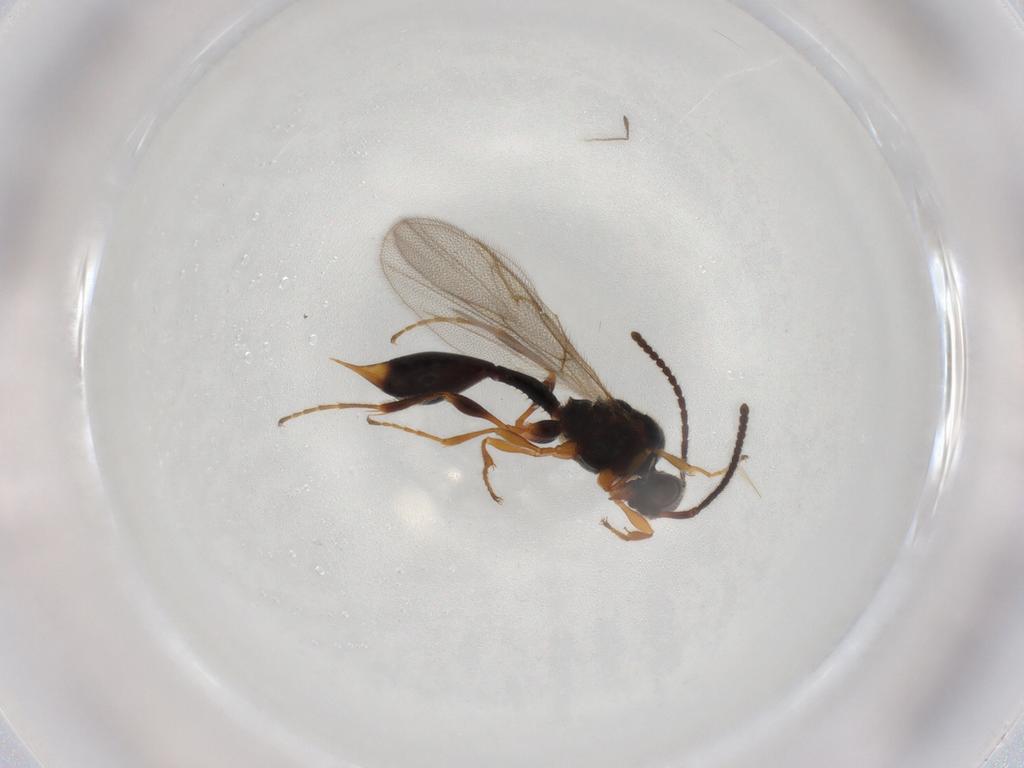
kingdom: Animalia
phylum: Arthropoda
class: Insecta
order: Hymenoptera
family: Diapriidae
